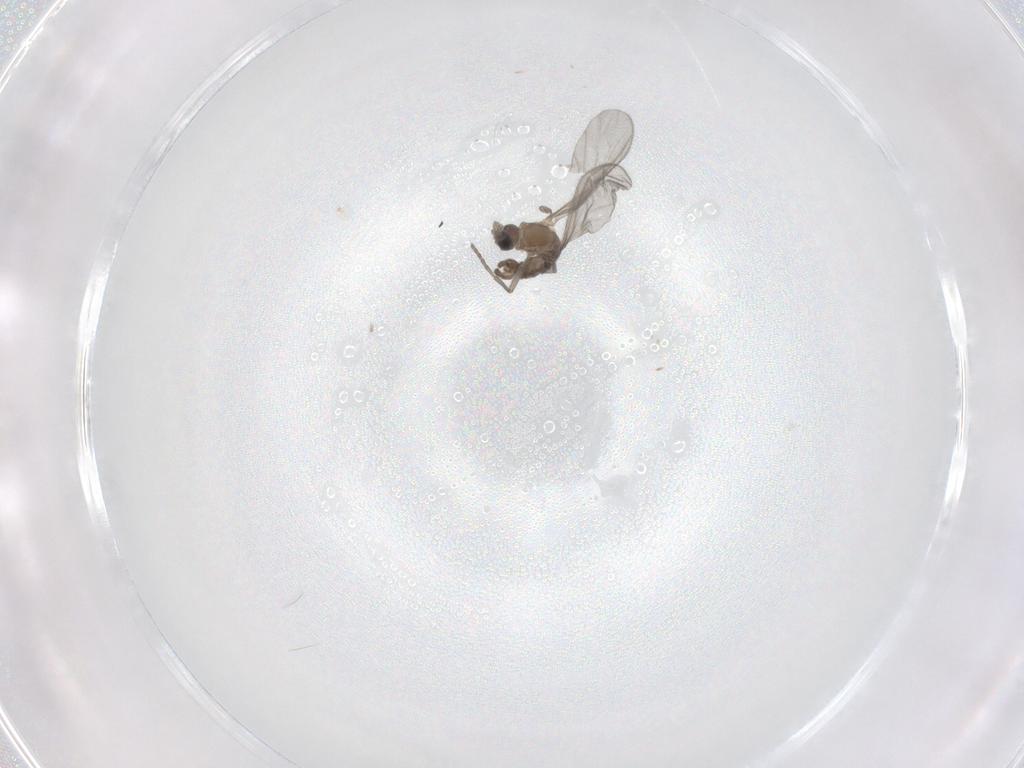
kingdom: Animalia
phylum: Arthropoda
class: Insecta
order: Diptera
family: Sciaridae
